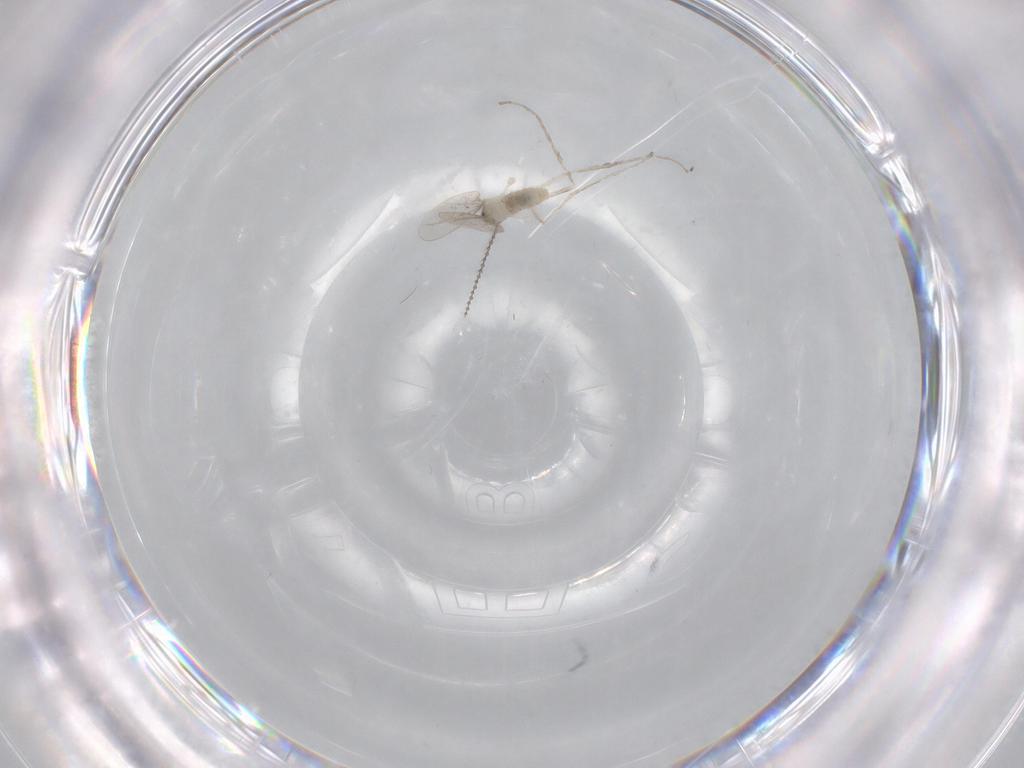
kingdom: Animalia
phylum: Arthropoda
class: Insecta
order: Diptera
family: Cecidomyiidae
